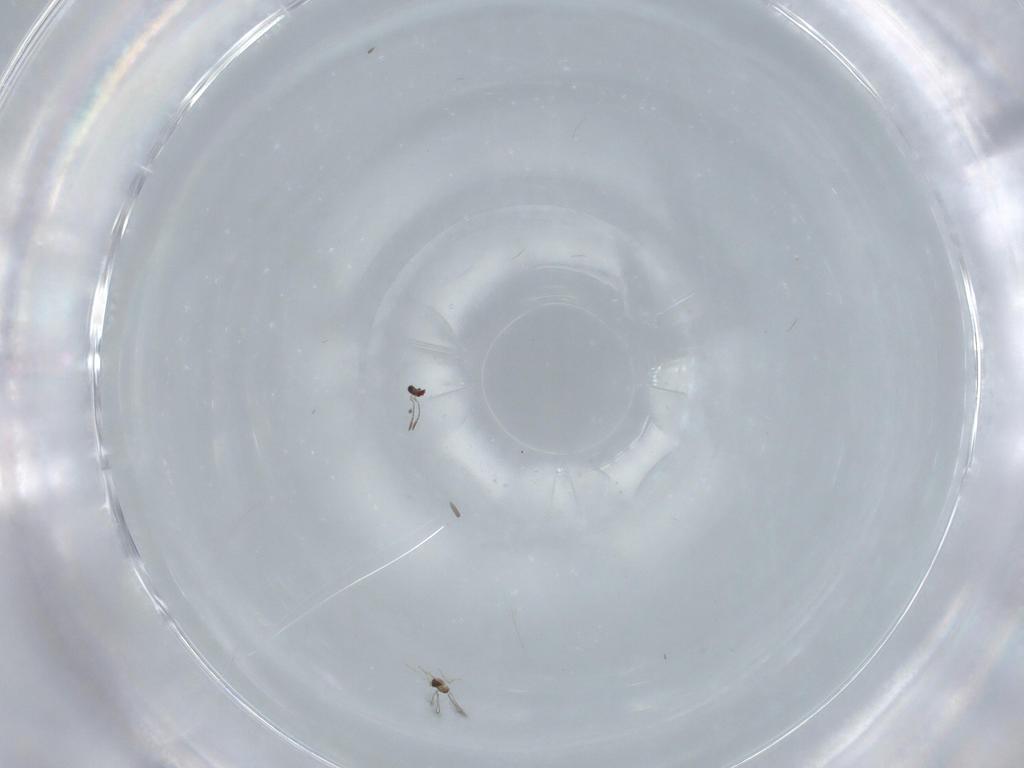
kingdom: Animalia
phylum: Arthropoda
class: Insecta
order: Hymenoptera
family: Mymaridae
